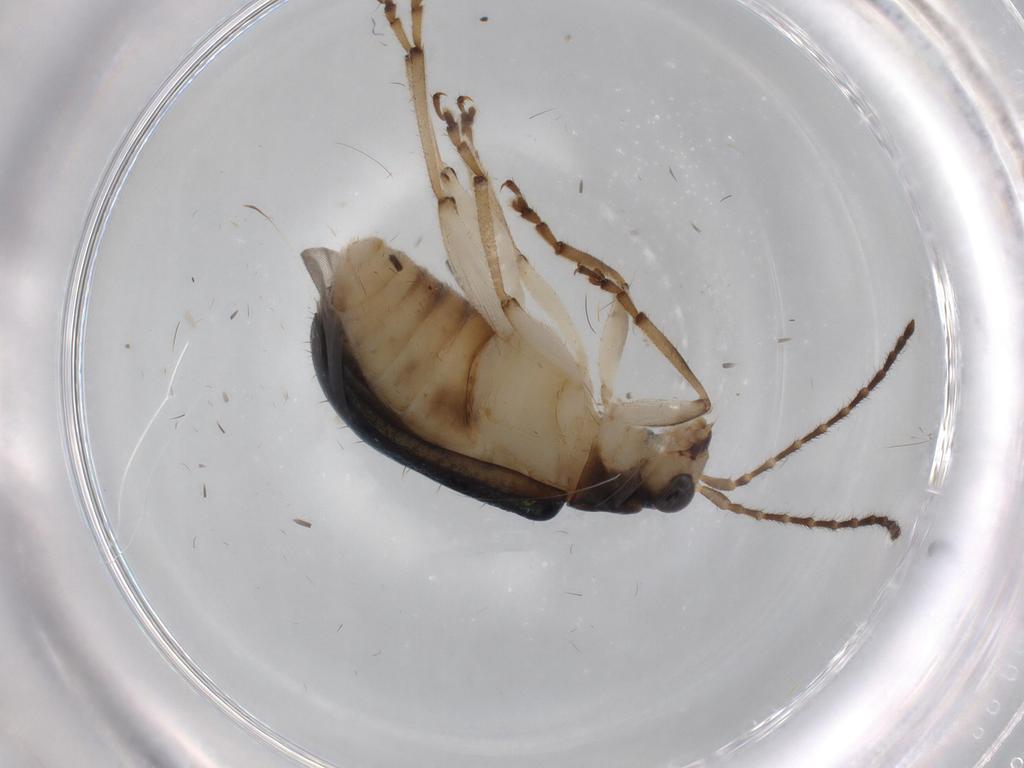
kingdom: Animalia
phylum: Arthropoda
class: Insecta
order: Coleoptera
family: Chrysomelidae
